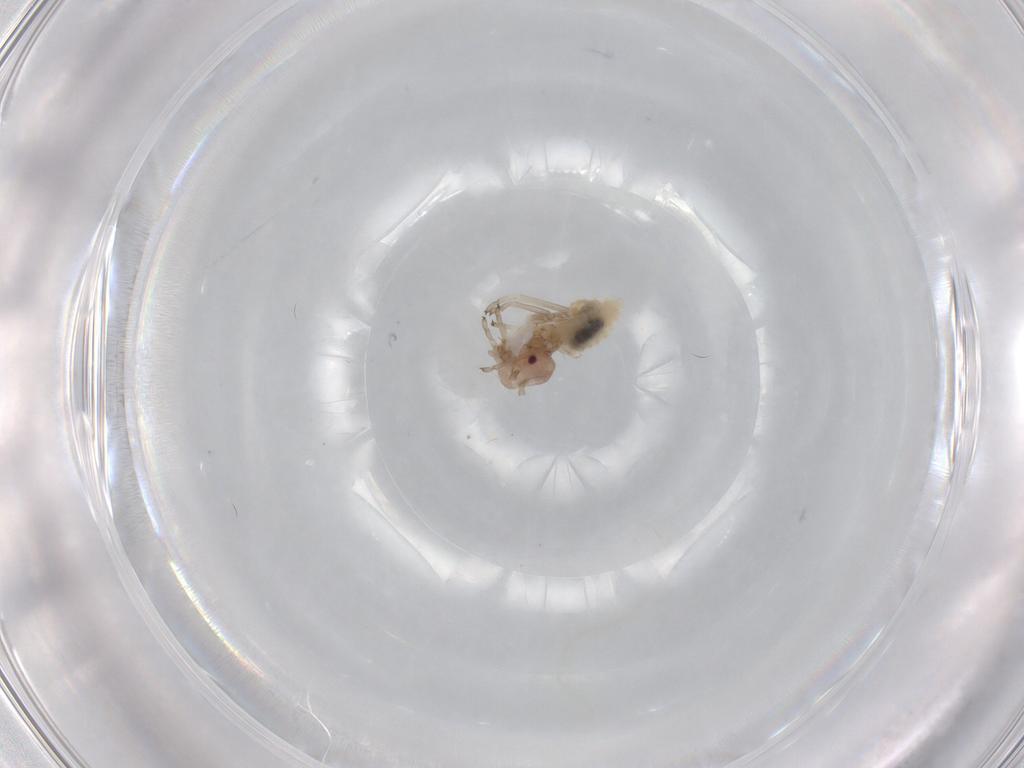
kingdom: Animalia
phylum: Arthropoda
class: Insecta
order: Psocodea
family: Stenopsocidae
